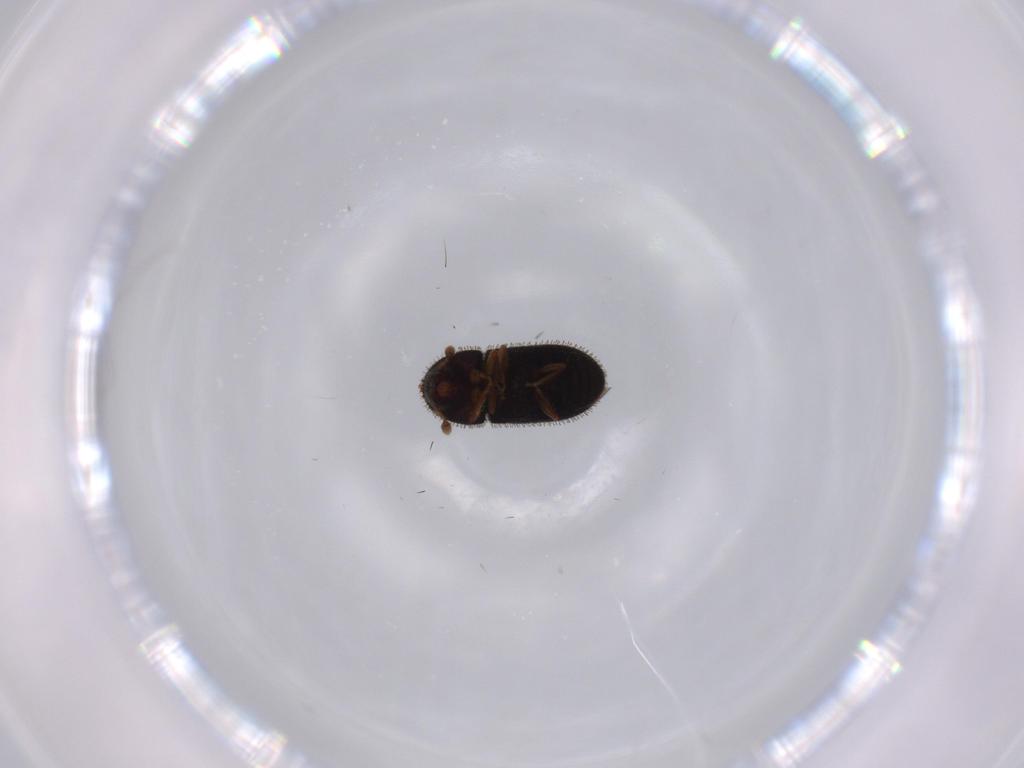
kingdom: Animalia
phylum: Arthropoda
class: Insecta
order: Coleoptera
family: Curculionidae
